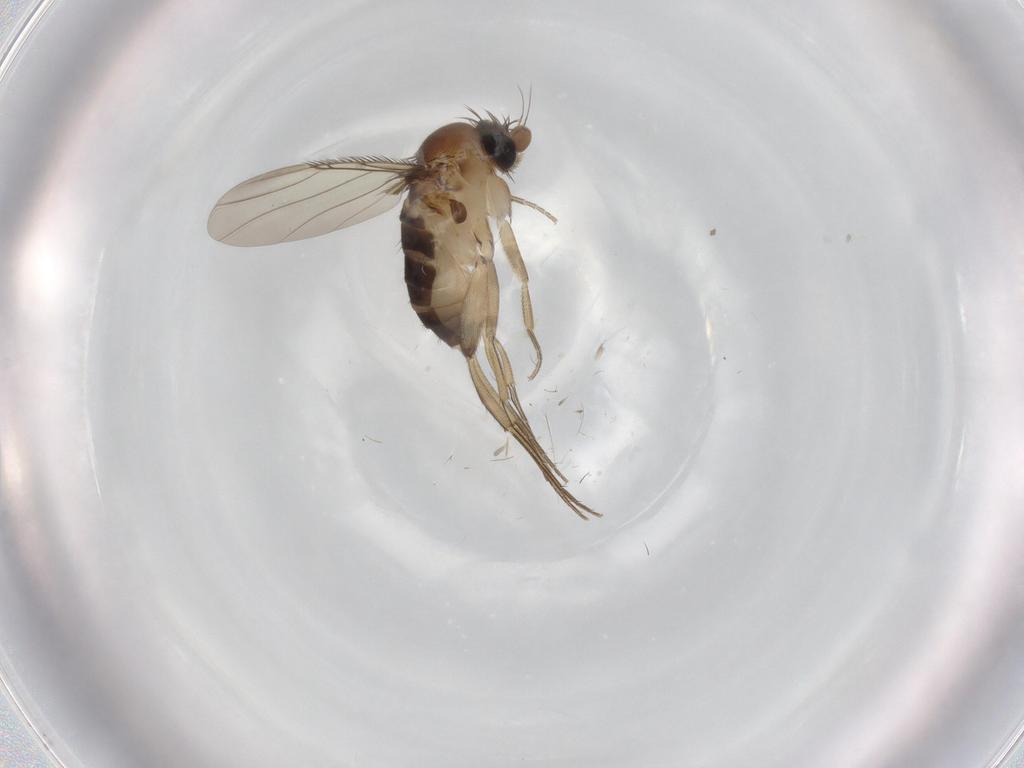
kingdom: Animalia
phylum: Arthropoda
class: Insecta
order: Diptera
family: Phoridae
